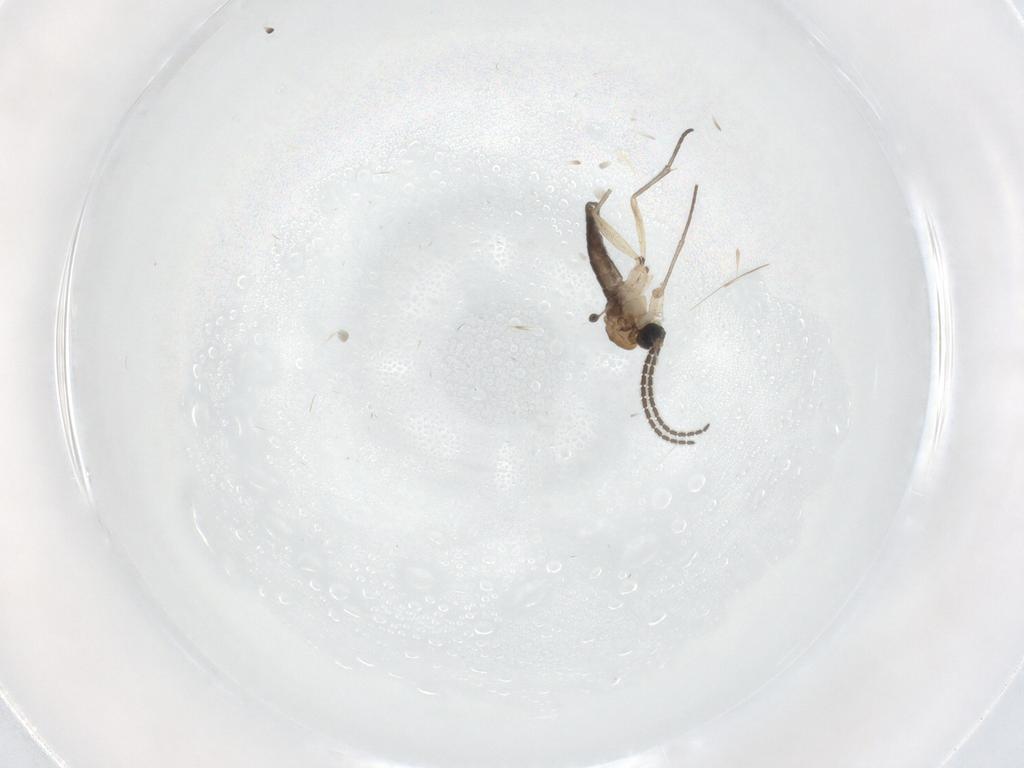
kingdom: Animalia
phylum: Arthropoda
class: Insecta
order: Diptera
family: Sciaridae
